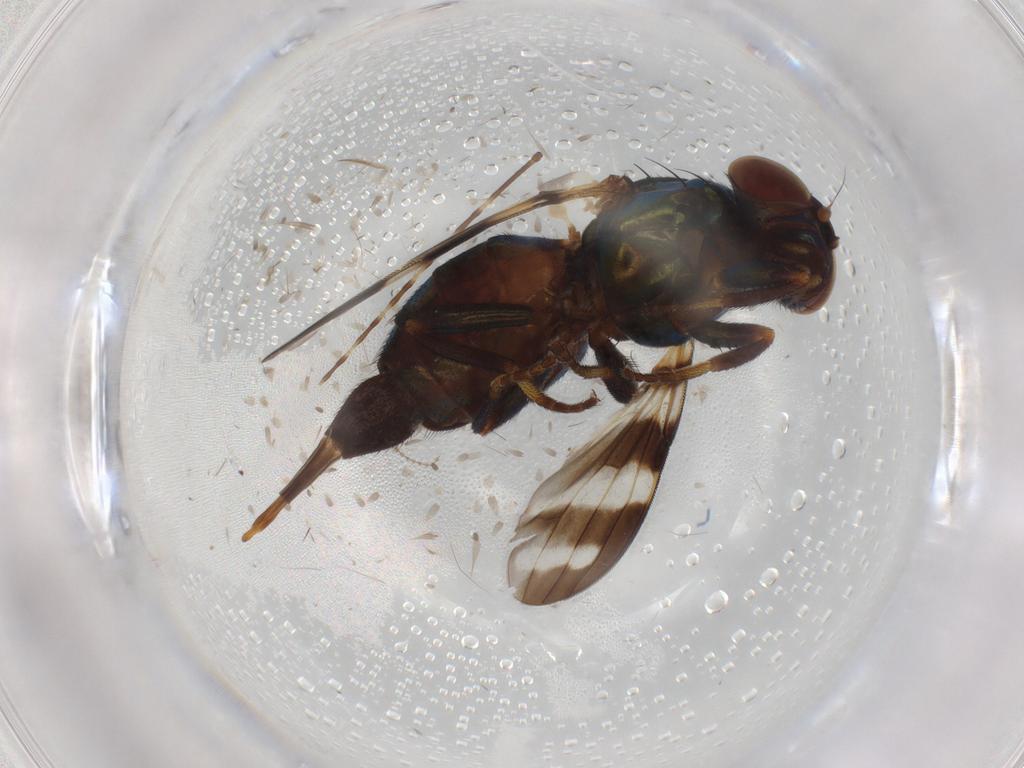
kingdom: Animalia
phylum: Arthropoda
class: Insecta
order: Diptera
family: Ulidiidae
